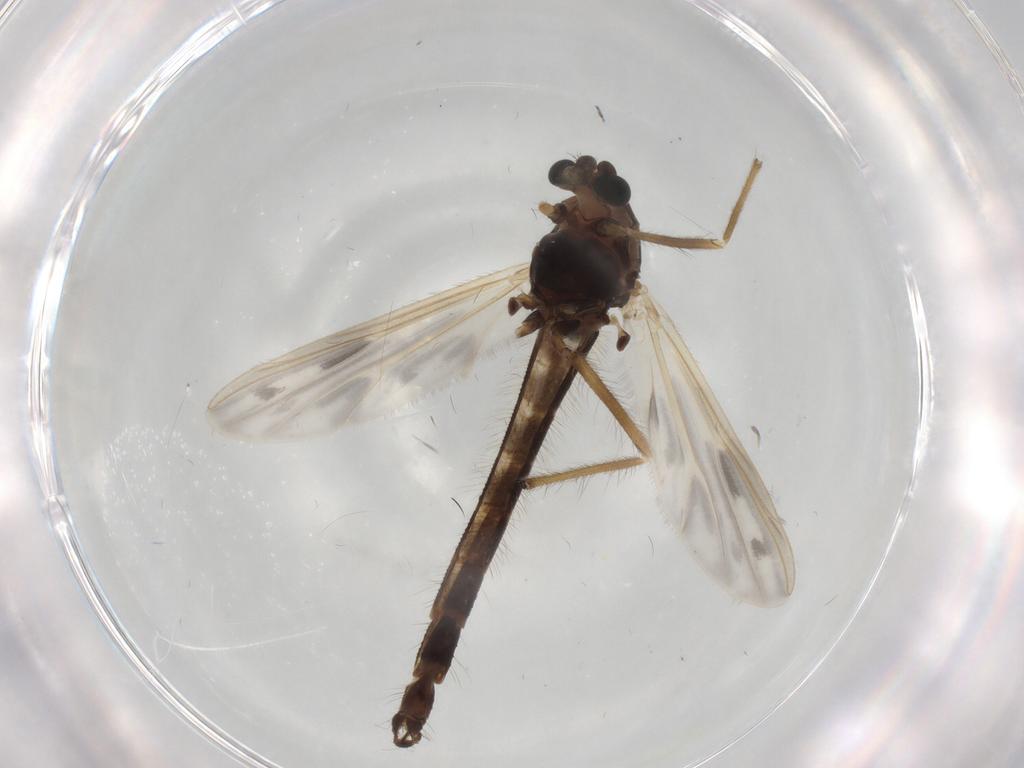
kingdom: Animalia
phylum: Arthropoda
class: Insecta
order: Diptera
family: Chironomidae
